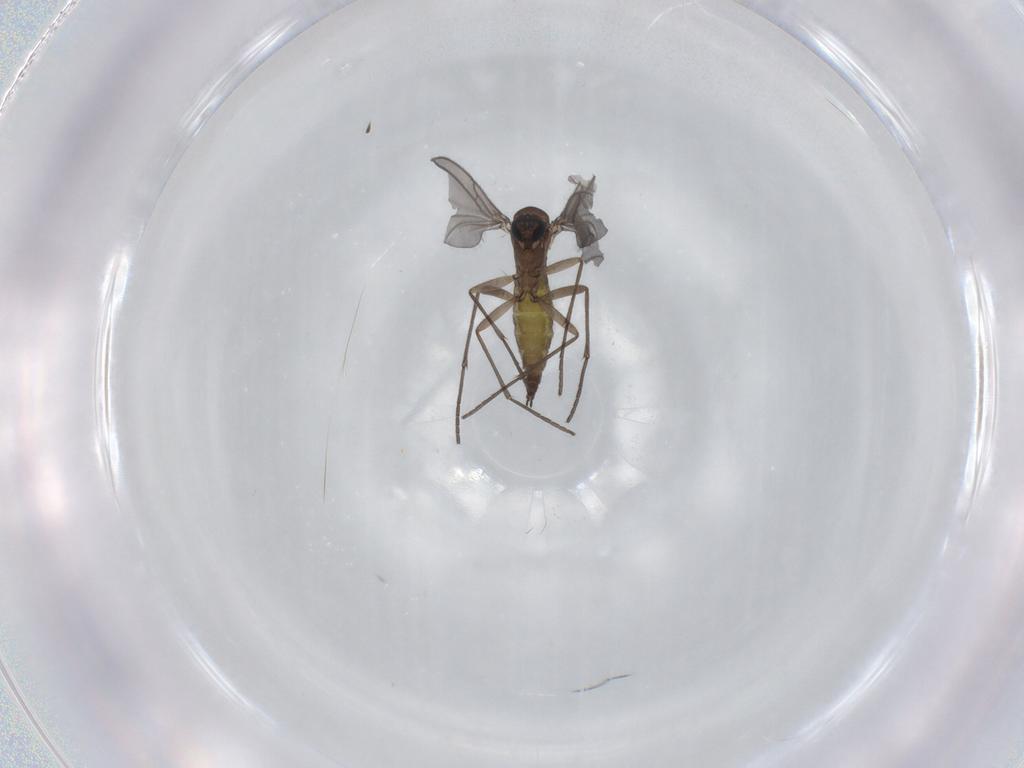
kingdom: Animalia
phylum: Arthropoda
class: Insecta
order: Diptera
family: Sciaridae
